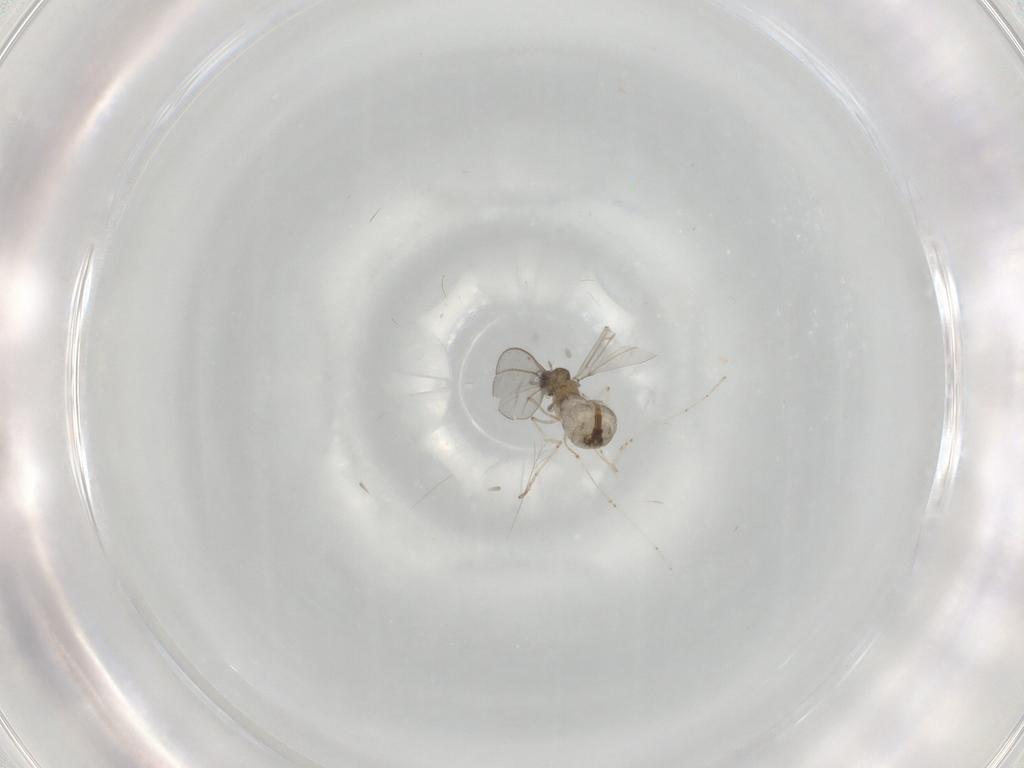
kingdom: Animalia
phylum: Arthropoda
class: Insecta
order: Diptera
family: Cecidomyiidae
